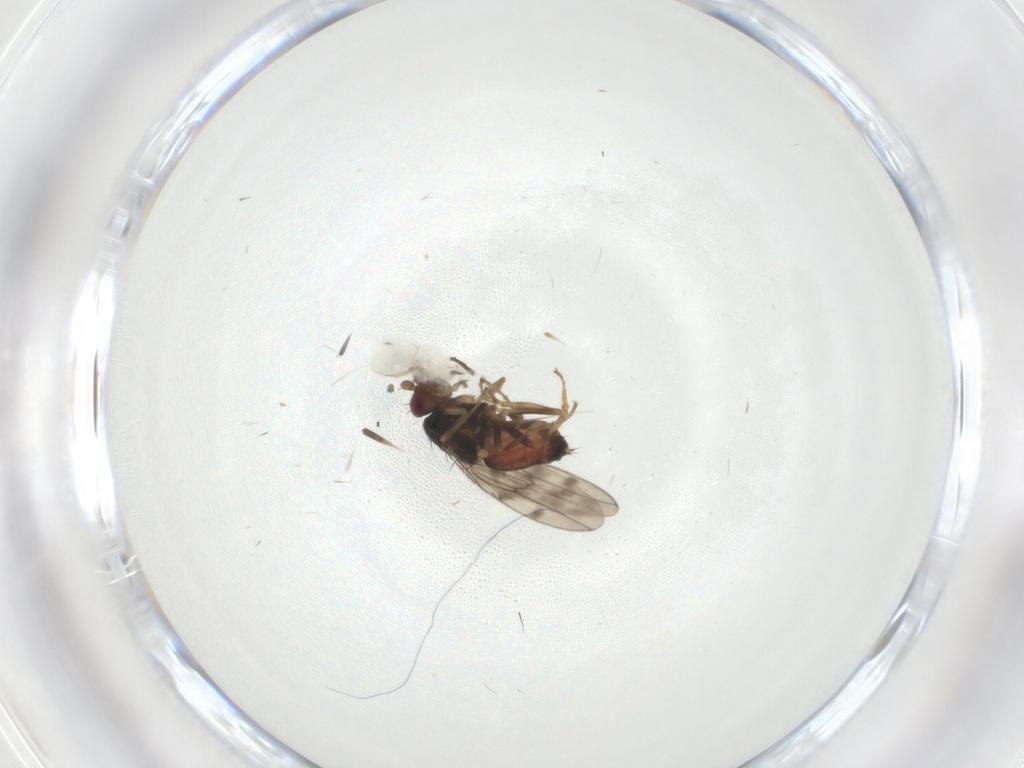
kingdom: Animalia
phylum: Arthropoda
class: Insecta
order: Diptera
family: Sphaeroceridae
